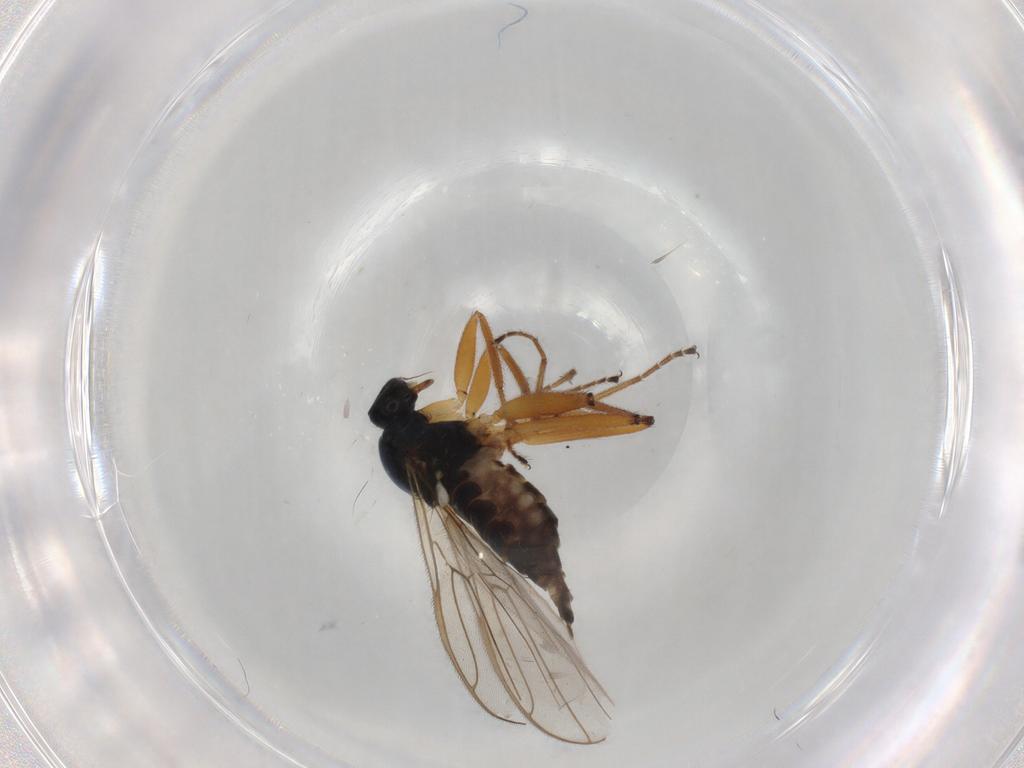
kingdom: Animalia
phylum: Arthropoda
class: Insecta
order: Diptera
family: Hybotidae
